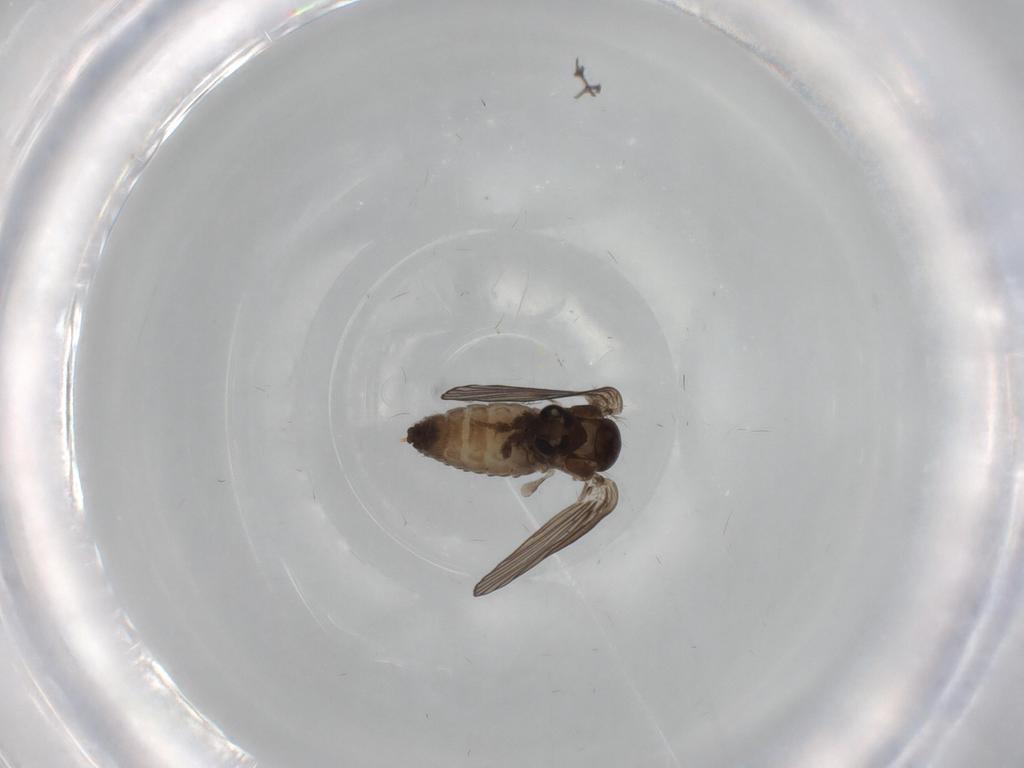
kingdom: Animalia
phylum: Arthropoda
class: Insecta
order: Diptera
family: Psychodidae
